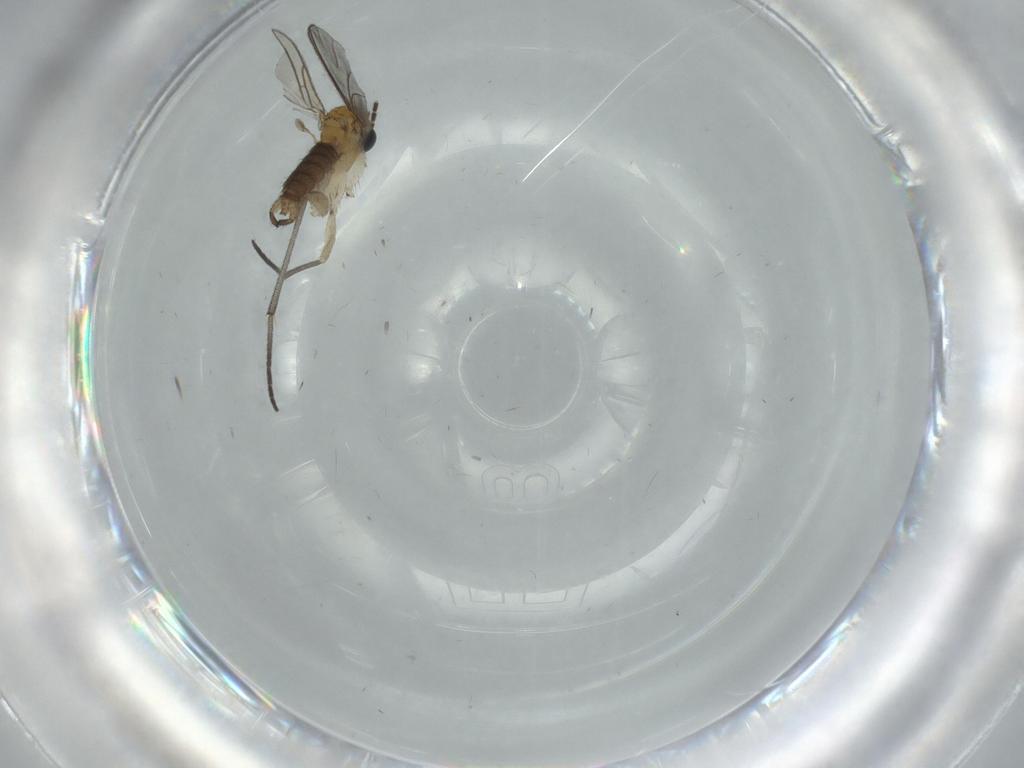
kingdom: Animalia
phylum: Arthropoda
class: Insecta
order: Diptera
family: Sciaridae
